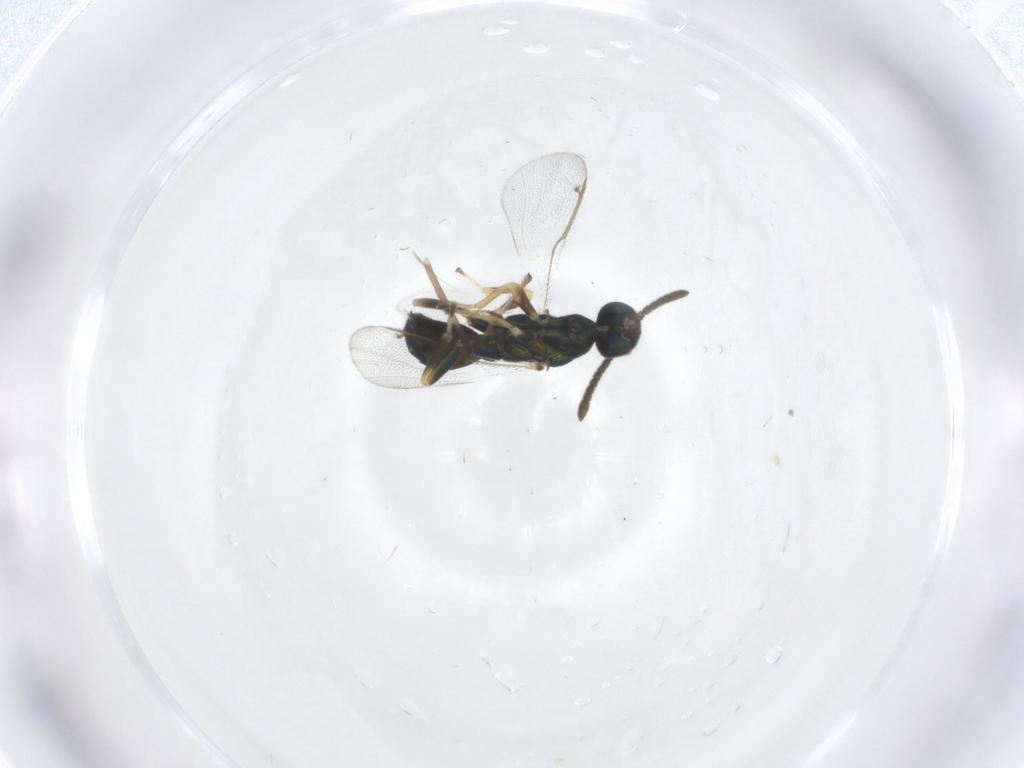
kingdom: Animalia
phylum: Arthropoda
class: Insecta
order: Hymenoptera
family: Torymidae
